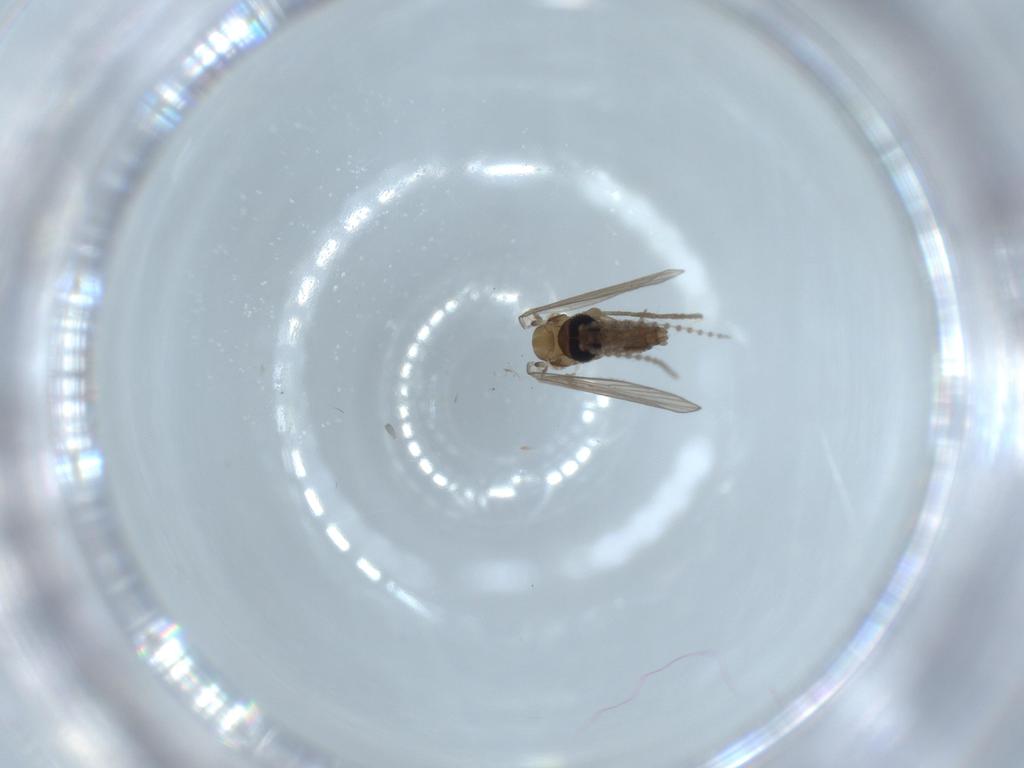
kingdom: Animalia
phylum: Arthropoda
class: Insecta
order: Diptera
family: Psychodidae
